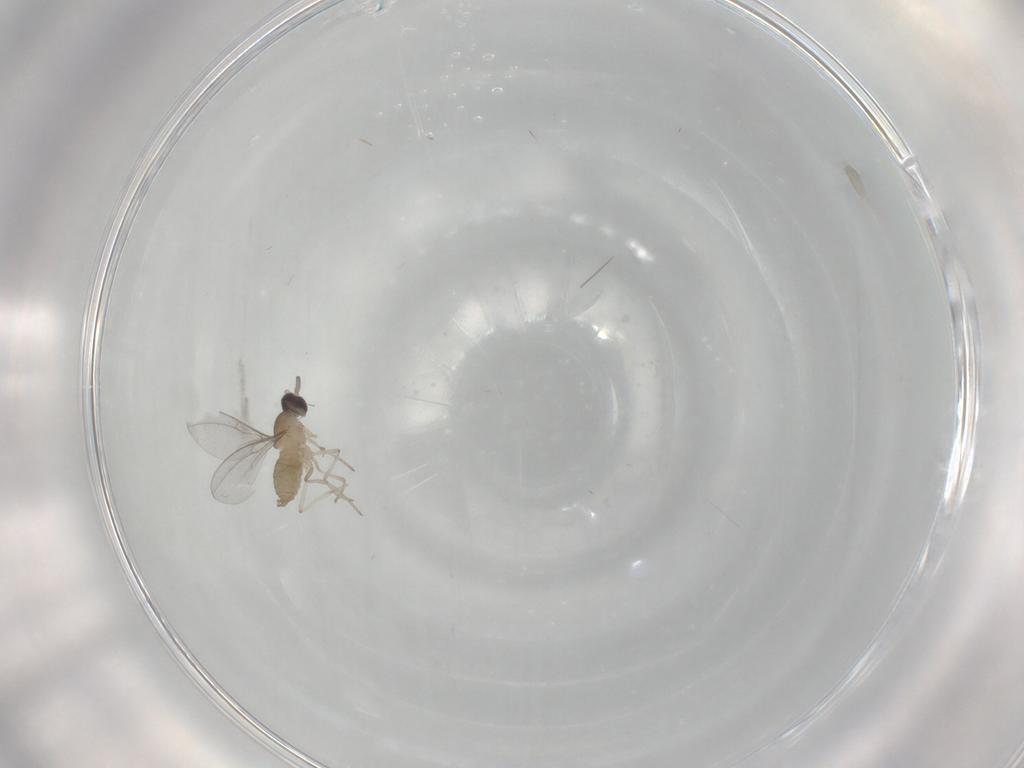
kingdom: Animalia
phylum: Arthropoda
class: Insecta
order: Diptera
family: Cecidomyiidae
